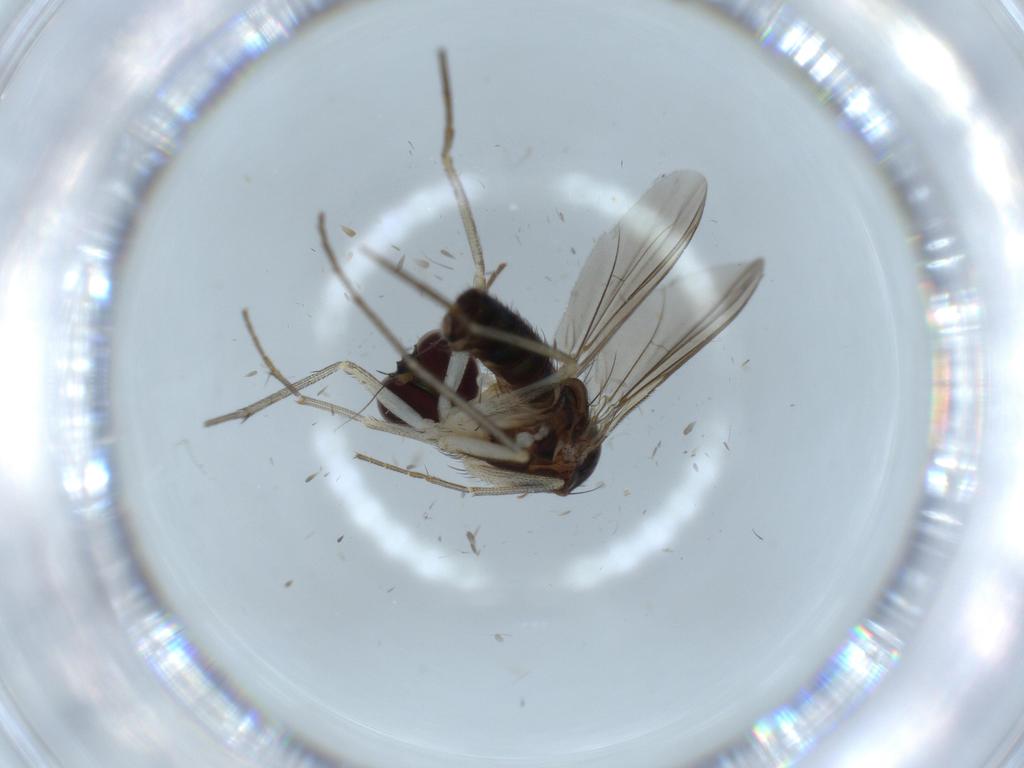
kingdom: Animalia
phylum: Arthropoda
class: Insecta
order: Diptera
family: Dolichopodidae
